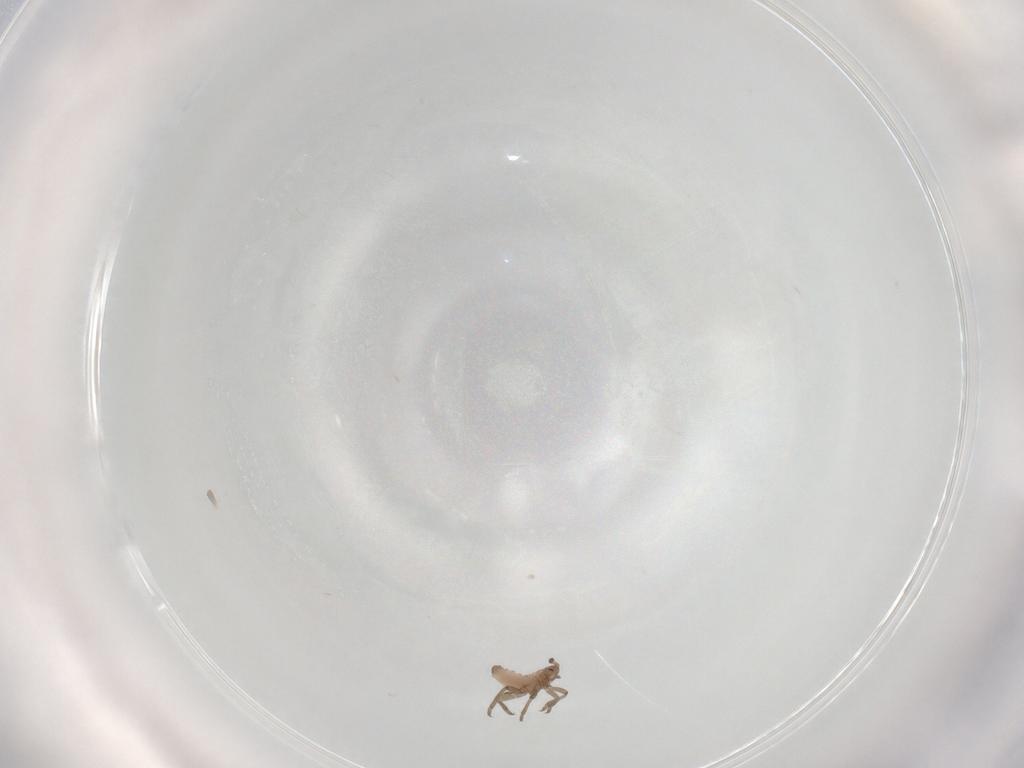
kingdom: Animalia
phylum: Arthropoda
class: Insecta
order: Hemiptera
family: Aphididae
